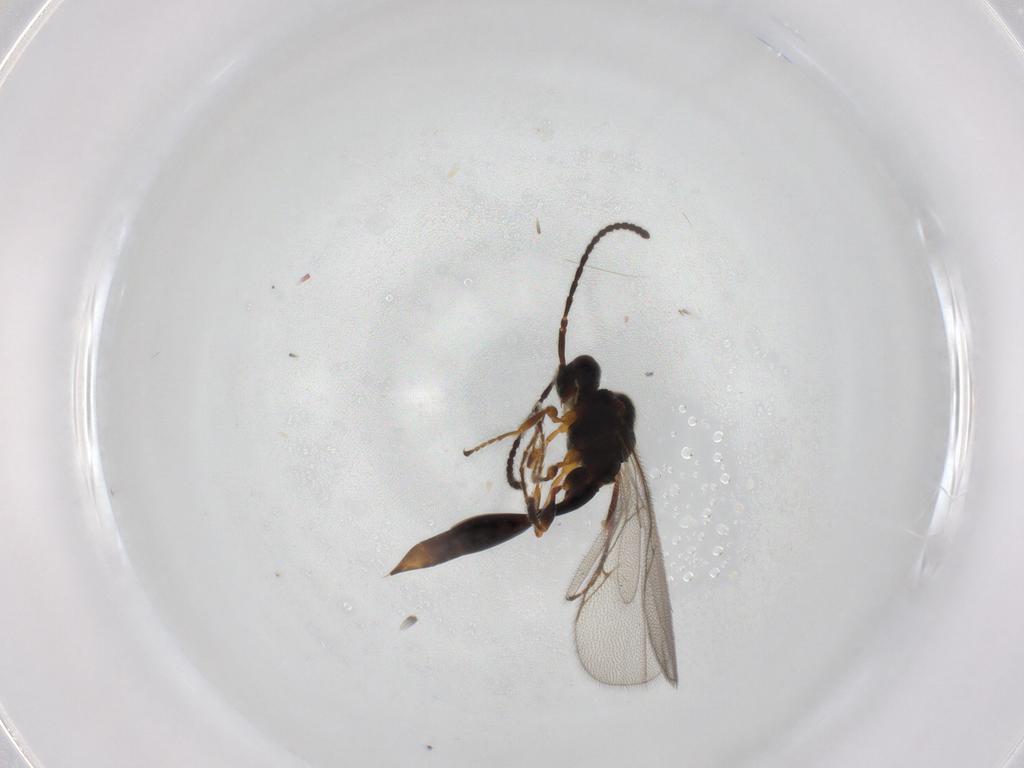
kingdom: Animalia
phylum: Arthropoda
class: Insecta
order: Hymenoptera
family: Diapriidae
